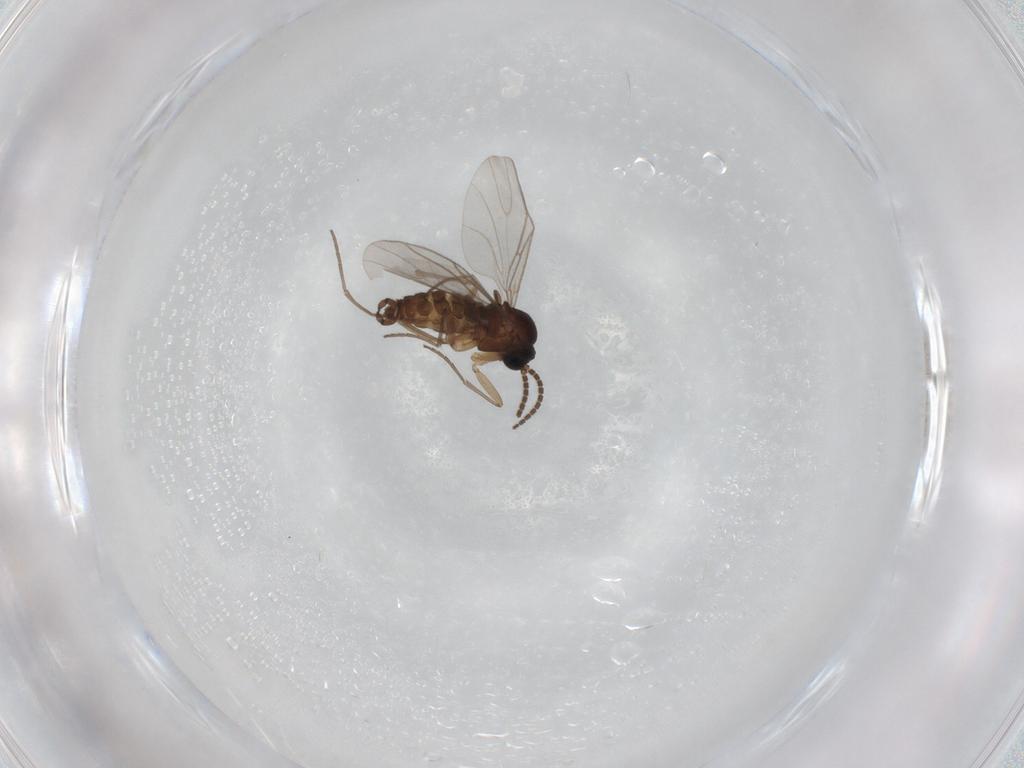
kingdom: Animalia
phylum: Arthropoda
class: Insecta
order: Diptera
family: Sciaridae
